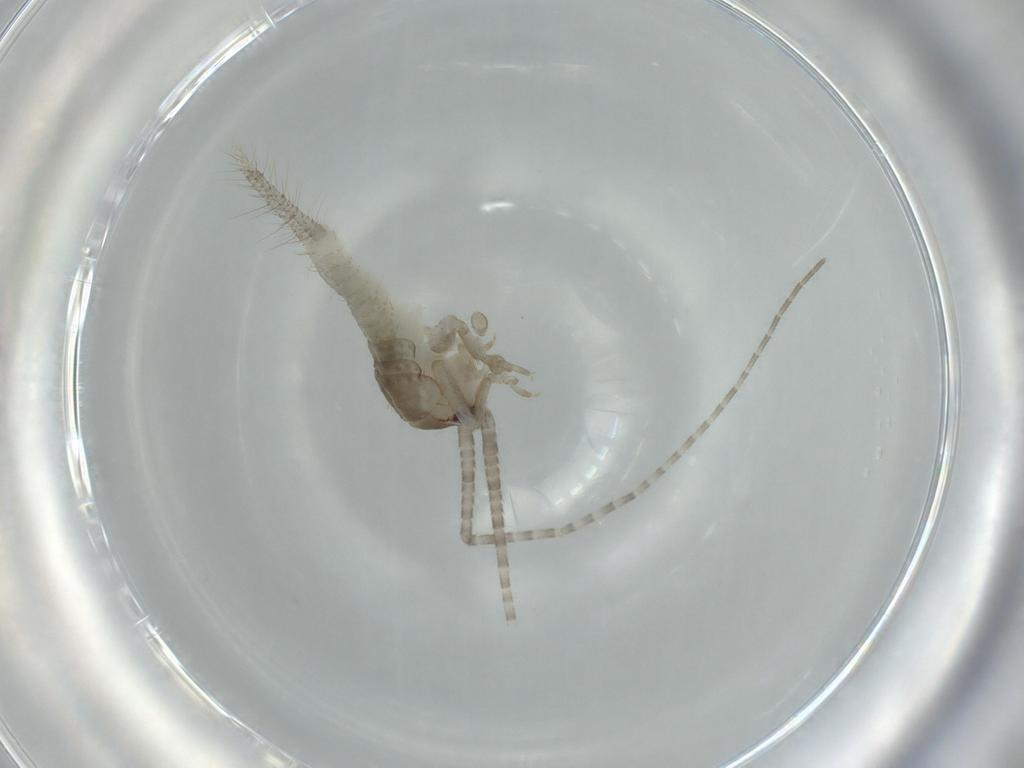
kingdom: Animalia
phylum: Arthropoda
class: Insecta
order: Orthoptera
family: Gryllidae
